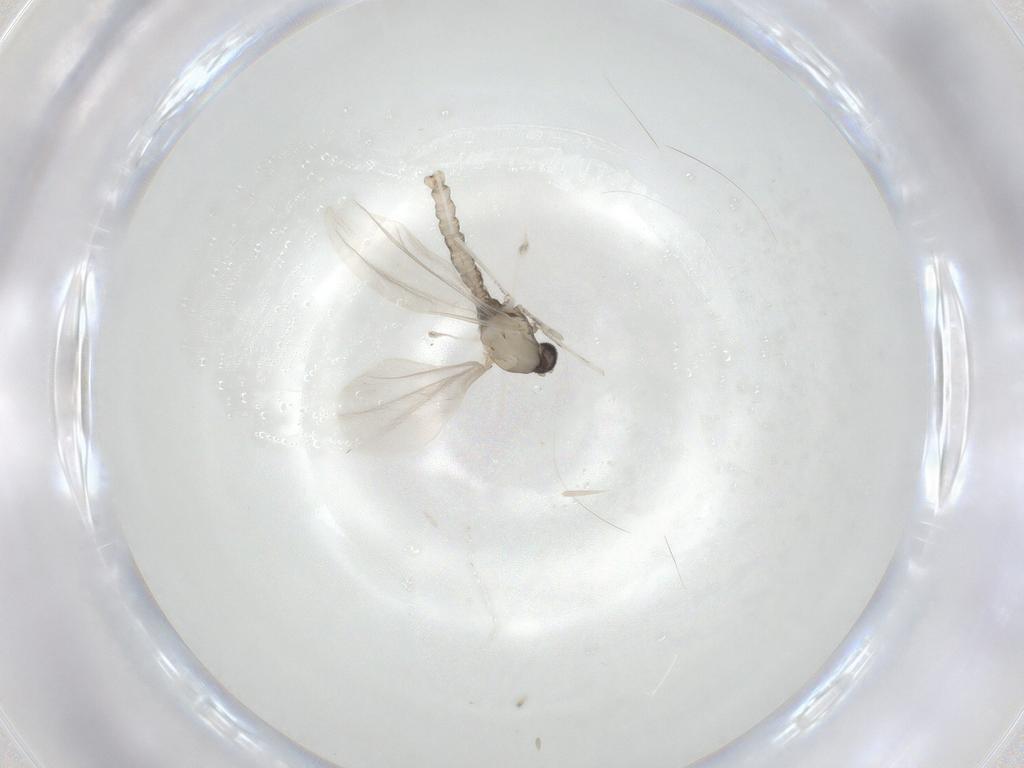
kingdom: Animalia
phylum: Arthropoda
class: Insecta
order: Diptera
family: Cecidomyiidae
